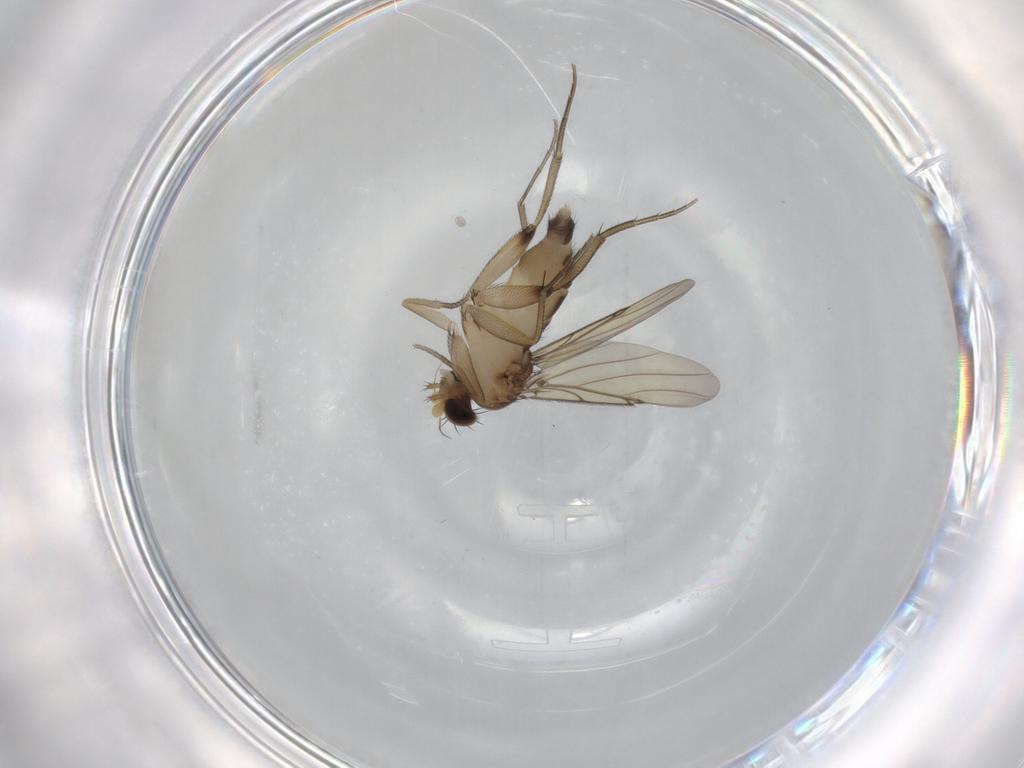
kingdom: Animalia
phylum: Arthropoda
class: Insecta
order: Diptera
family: Phoridae
